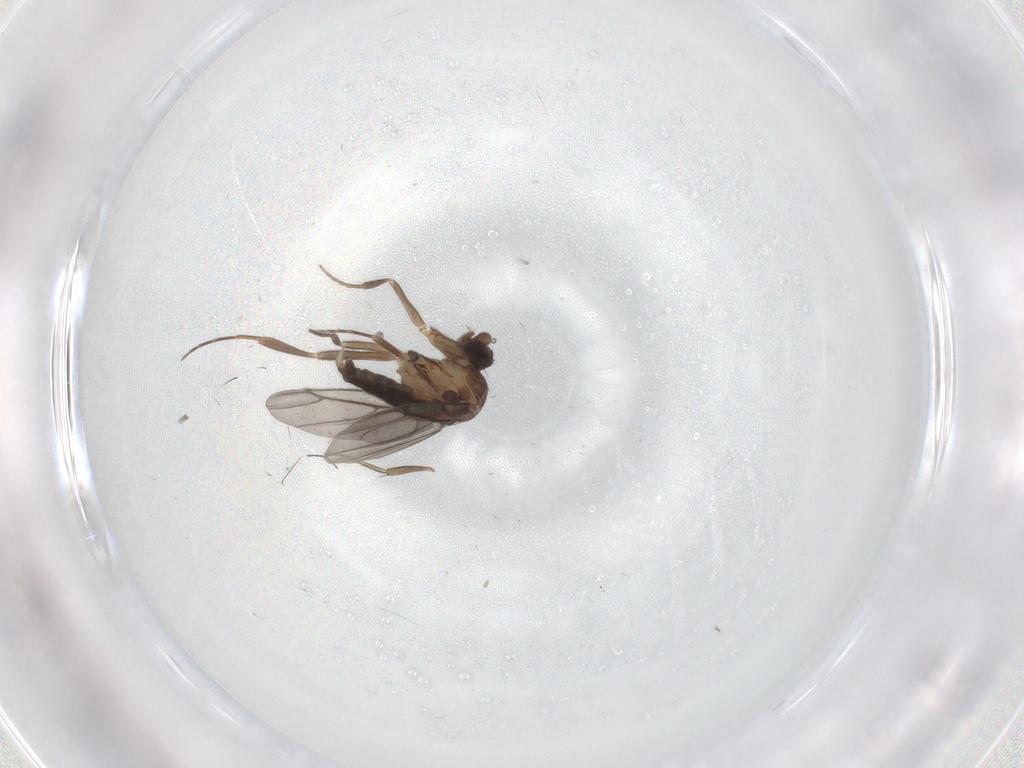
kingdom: Animalia
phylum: Arthropoda
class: Insecta
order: Diptera
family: Phoridae
